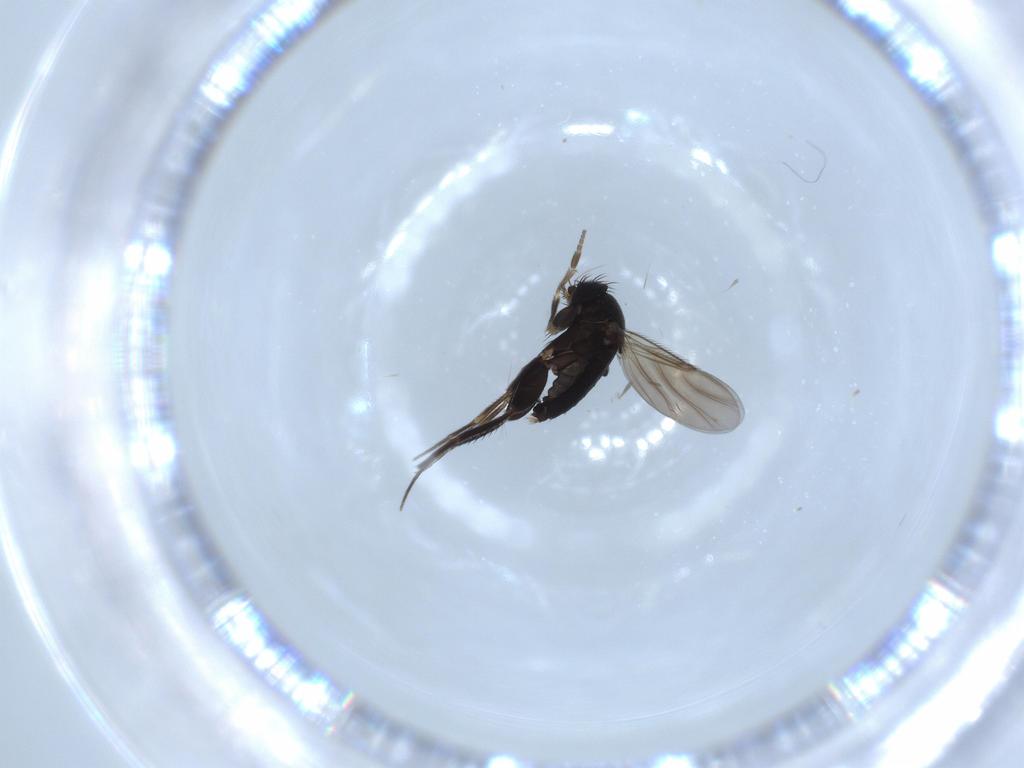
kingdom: Animalia
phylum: Arthropoda
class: Insecta
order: Diptera
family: Phoridae
